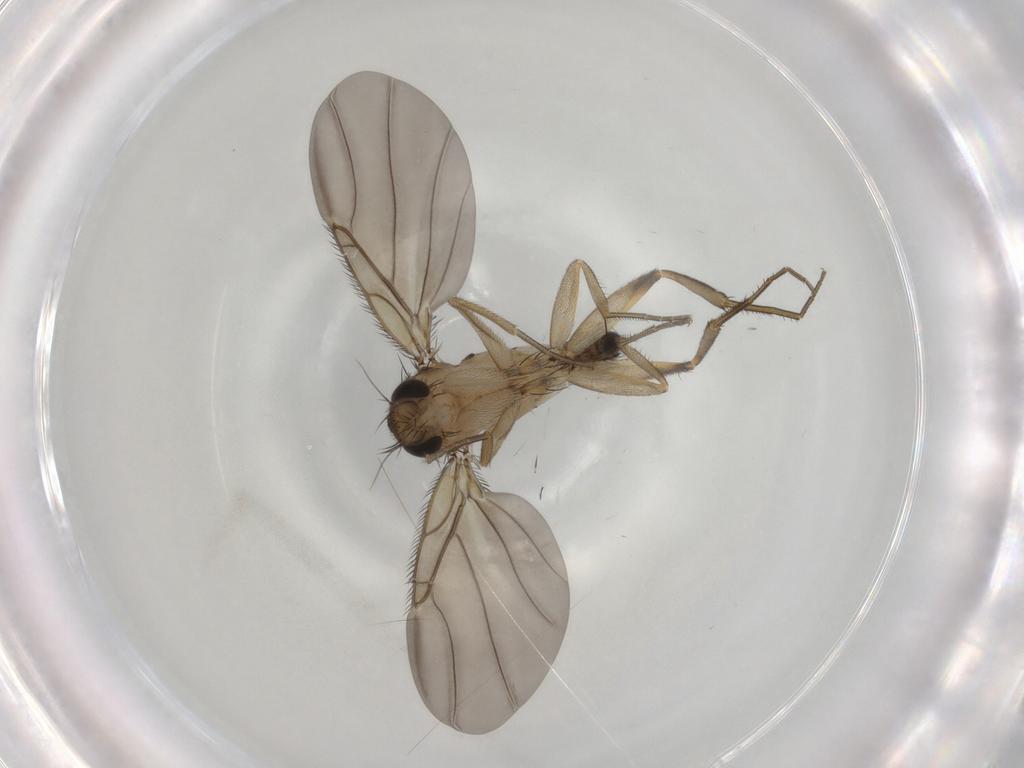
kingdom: Animalia
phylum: Arthropoda
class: Insecta
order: Diptera
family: Phoridae
